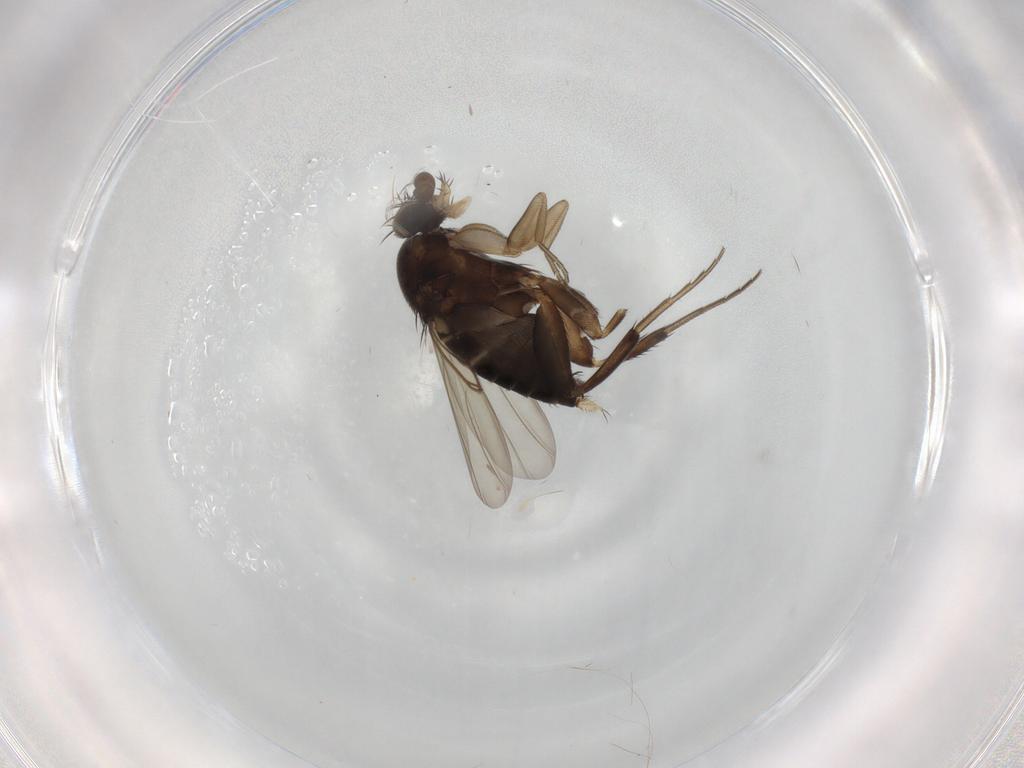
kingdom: Animalia
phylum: Arthropoda
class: Insecta
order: Diptera
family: Phoridae
